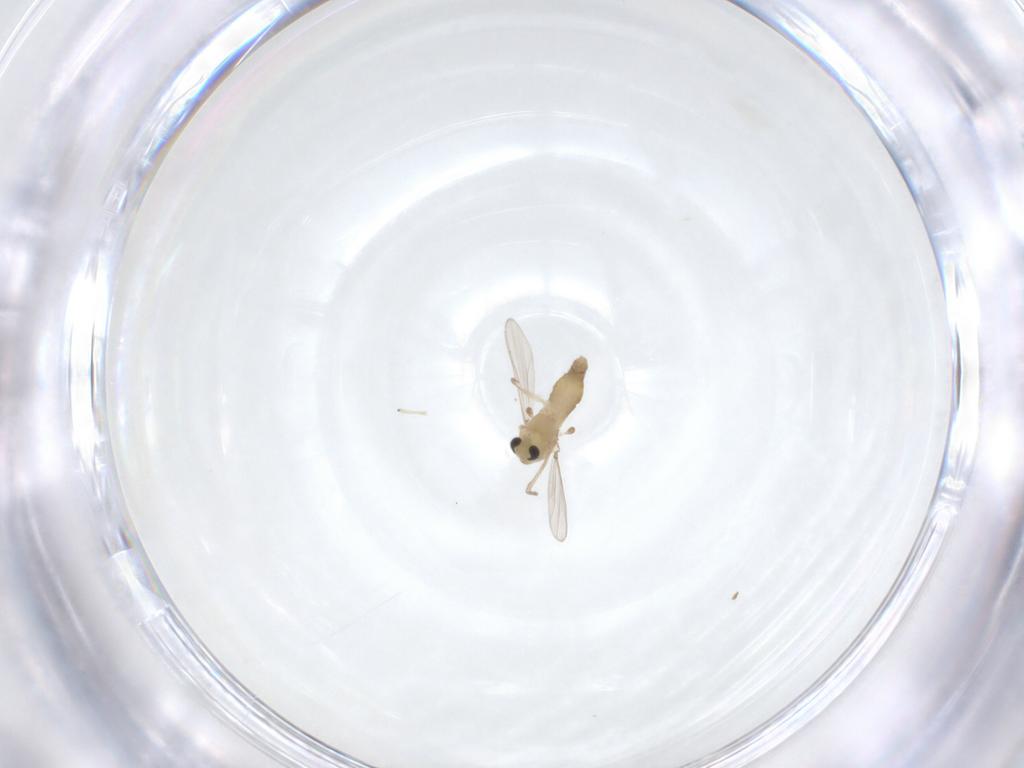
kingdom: Animalia
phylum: Arthropoda
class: Insecta
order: Diptera
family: Chironomidae
